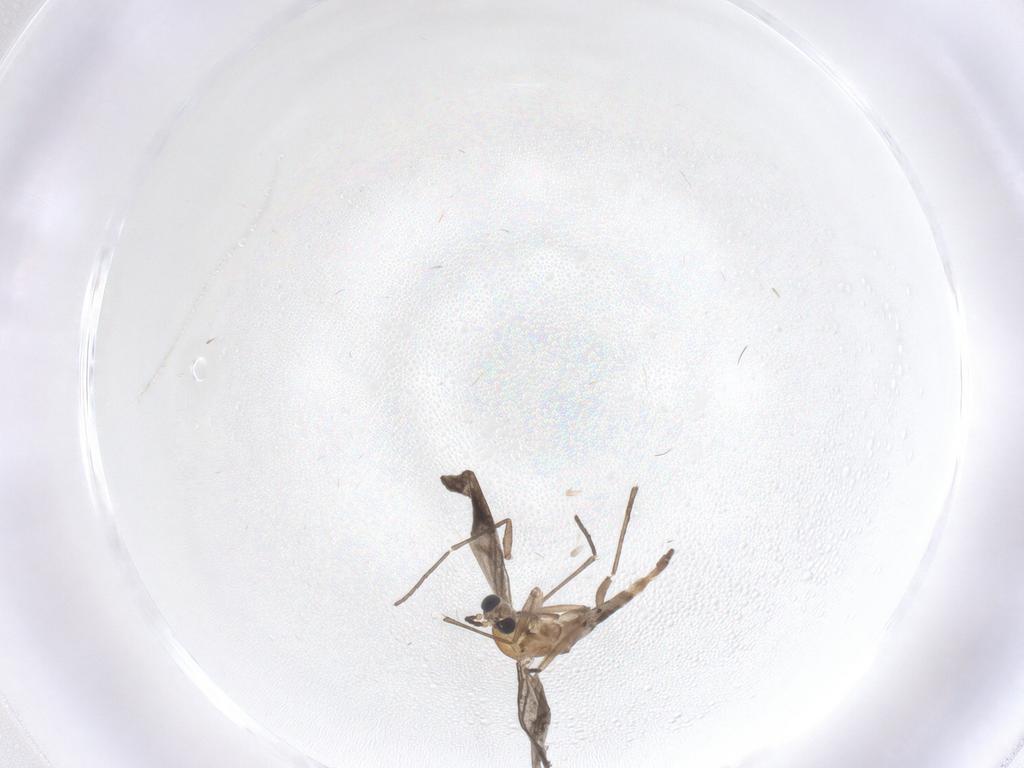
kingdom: Animalia
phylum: Arthropoda
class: Insecta
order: Diptera
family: Sciaridae
